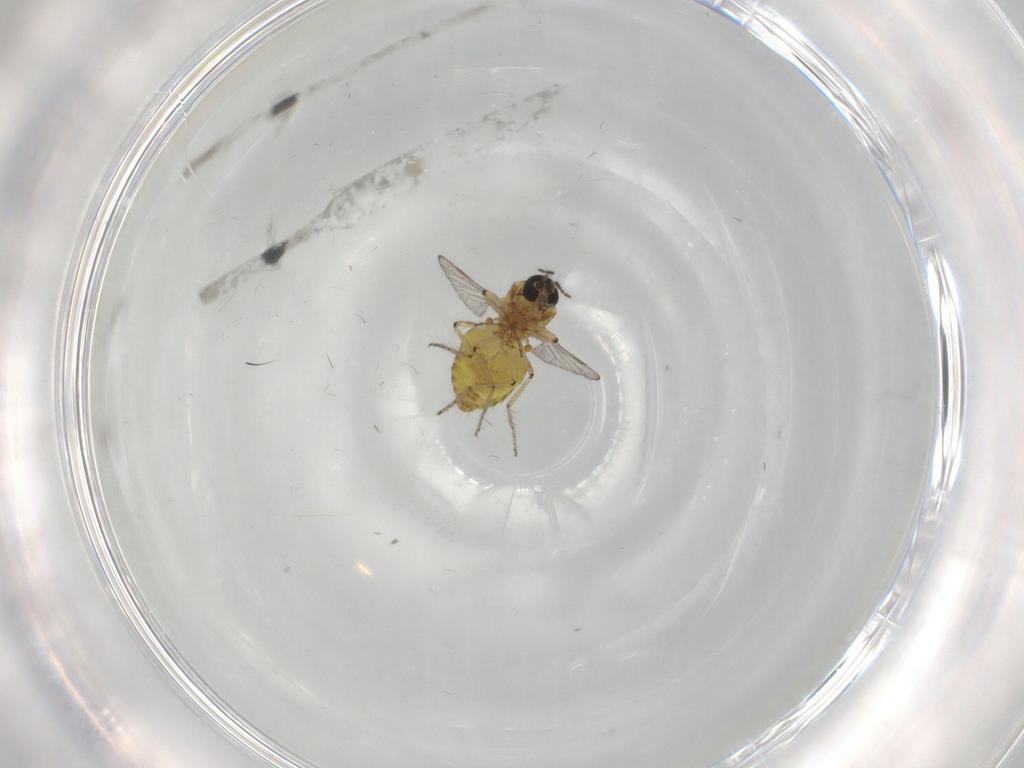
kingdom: Animalia
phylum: Arthropoda
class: Insecta
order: Diptera
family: Ceratopogonidae
